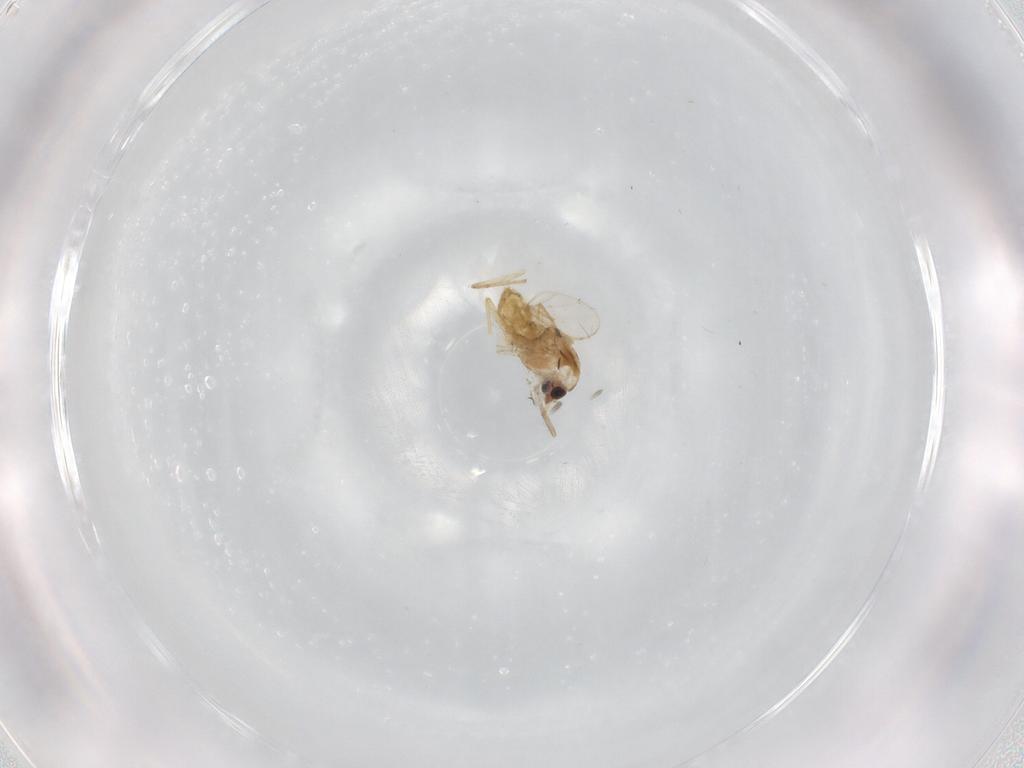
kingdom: Animalia
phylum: Arthropoda
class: Insecta
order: Diptera
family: Chironomidae
